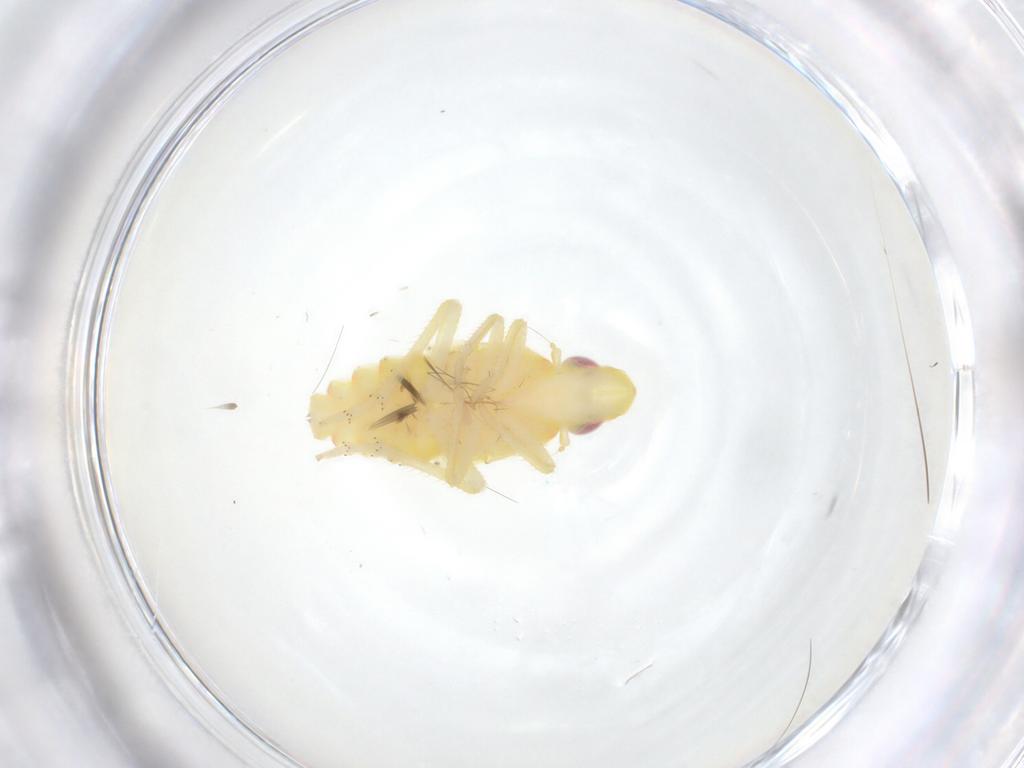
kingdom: Animalia
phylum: Arthropoda
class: Insecta
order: Hemiptera
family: Tropiduchidae
